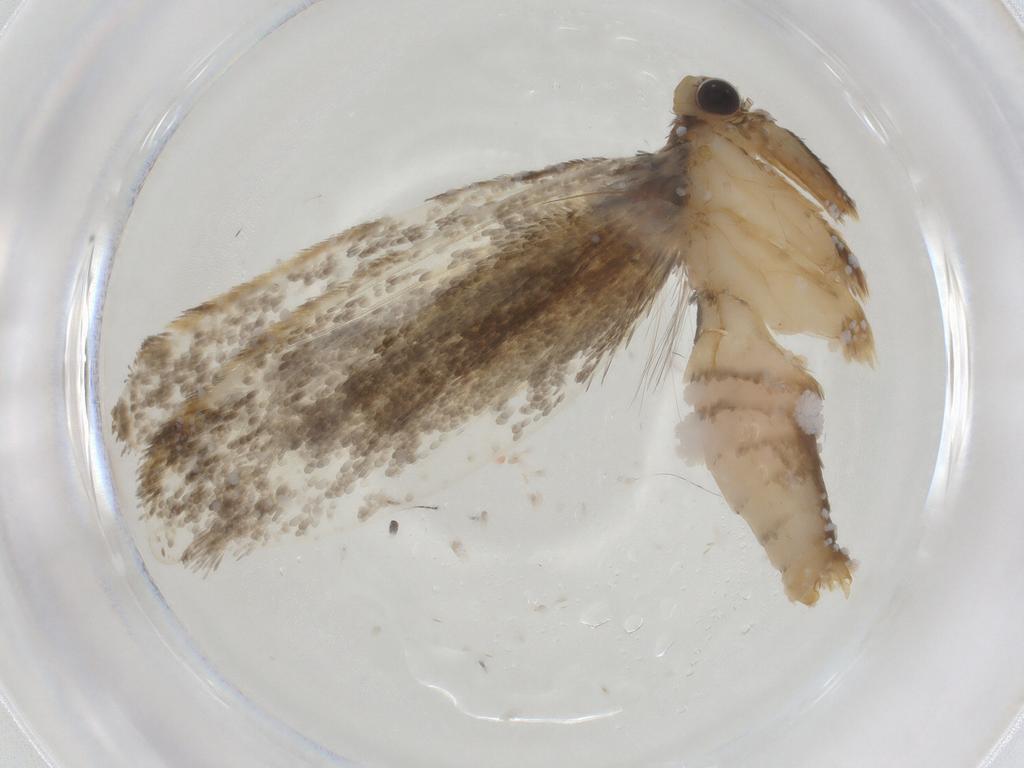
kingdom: Animalia
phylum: Arthropoda
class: Insecta
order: Lepidoptera
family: Tineidae
